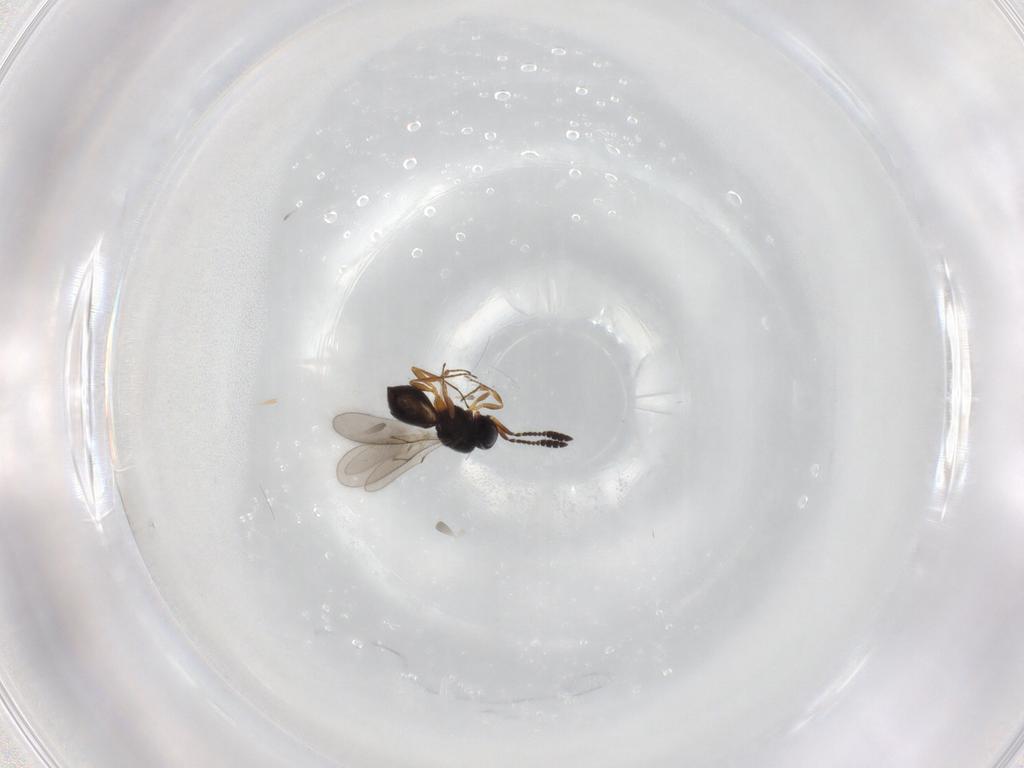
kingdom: Animalia
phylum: Arthropoda
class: Insecta
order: Hymenoptera
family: Scelionidae
